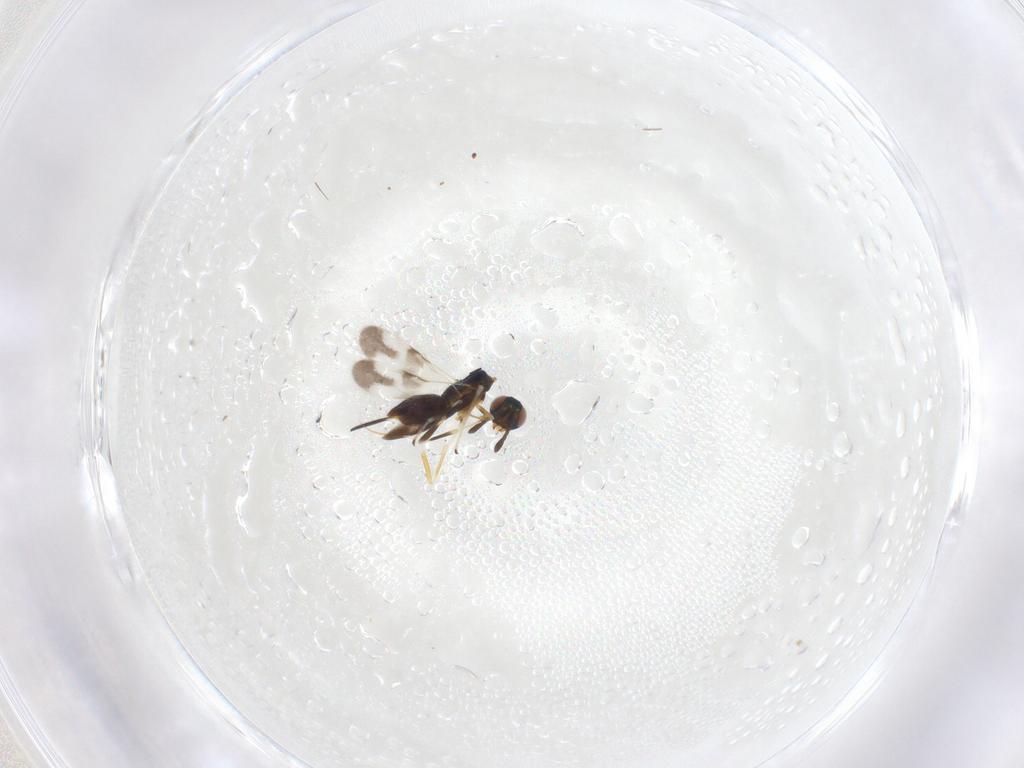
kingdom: Animalia
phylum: Arthropoda
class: Insecta
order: Hymenoptera
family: Encyrtidae
